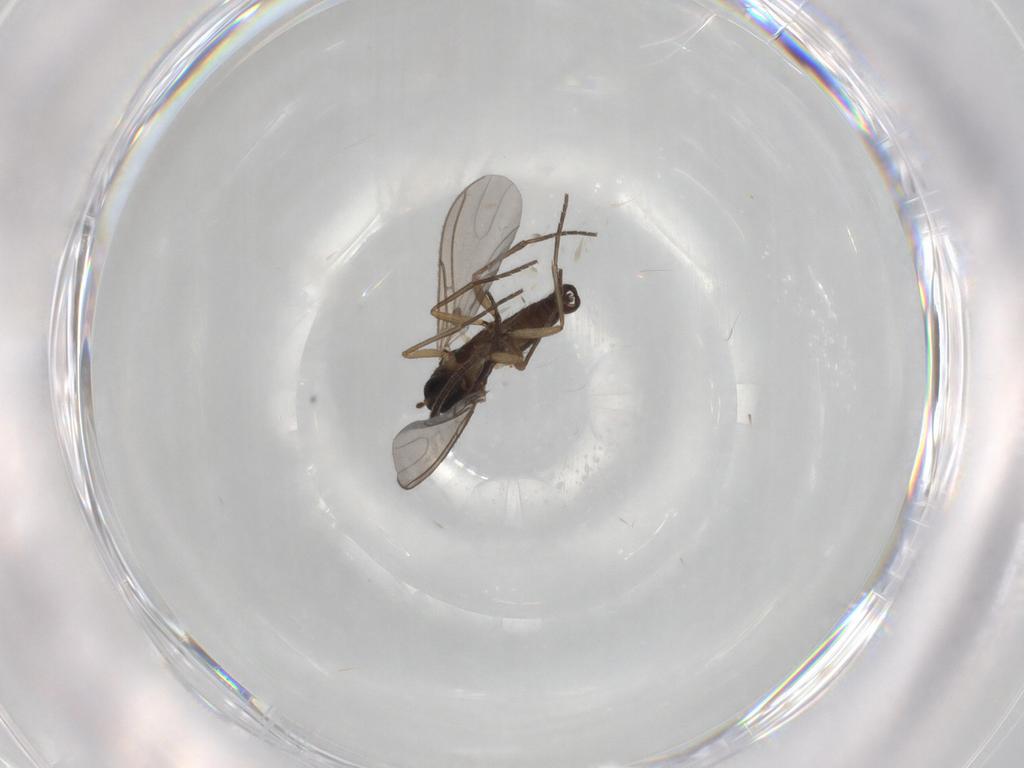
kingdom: Animalia
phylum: Arthropoda
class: Insecta
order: Diptera
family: Sciaridae
